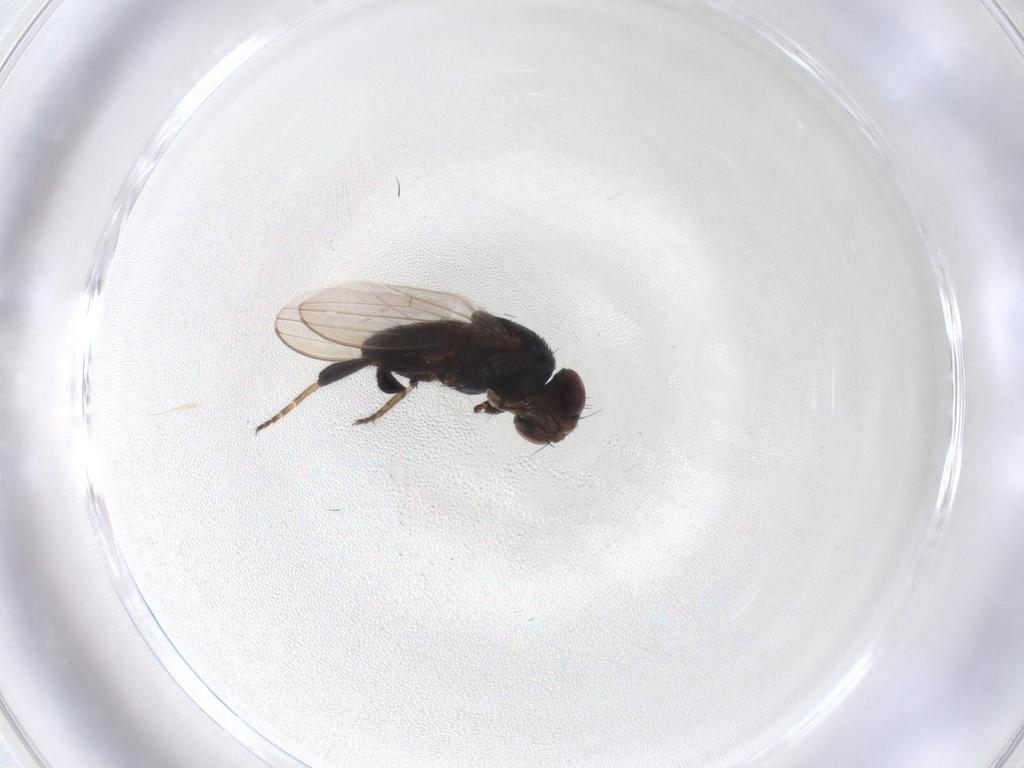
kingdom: Animalia
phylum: Arthropoda
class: Insecta
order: Diptera
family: Chloropidae
